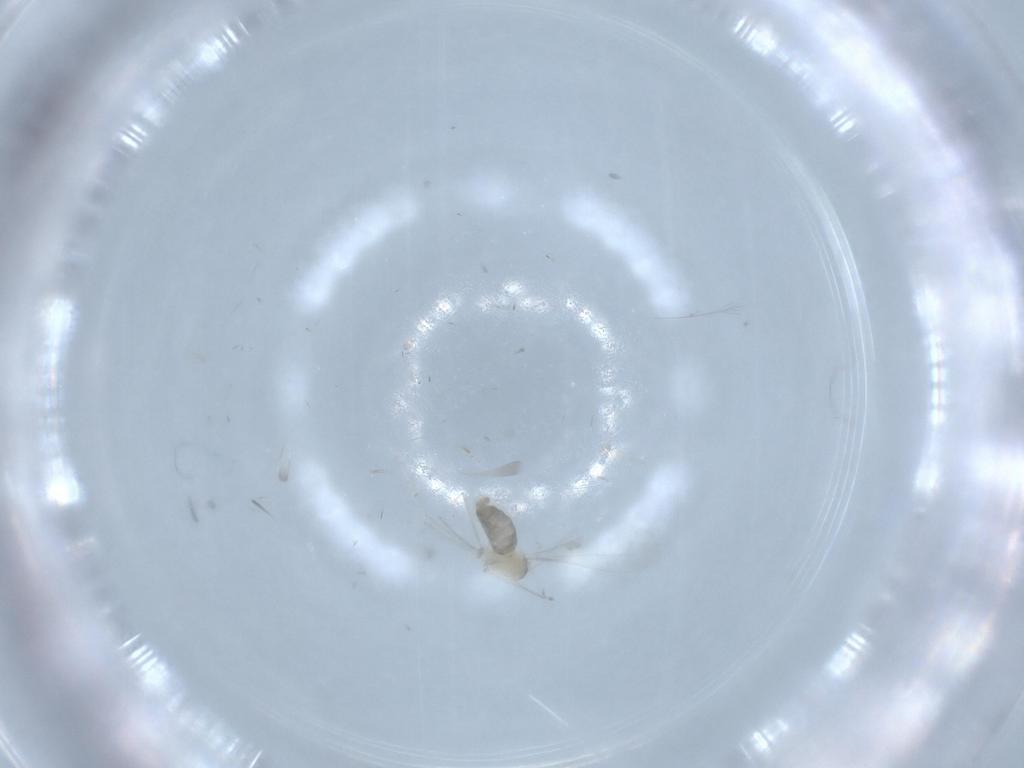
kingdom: Animalia
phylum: Arthropoda
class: Insecta
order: Diptera
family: Cecidomyiidae
